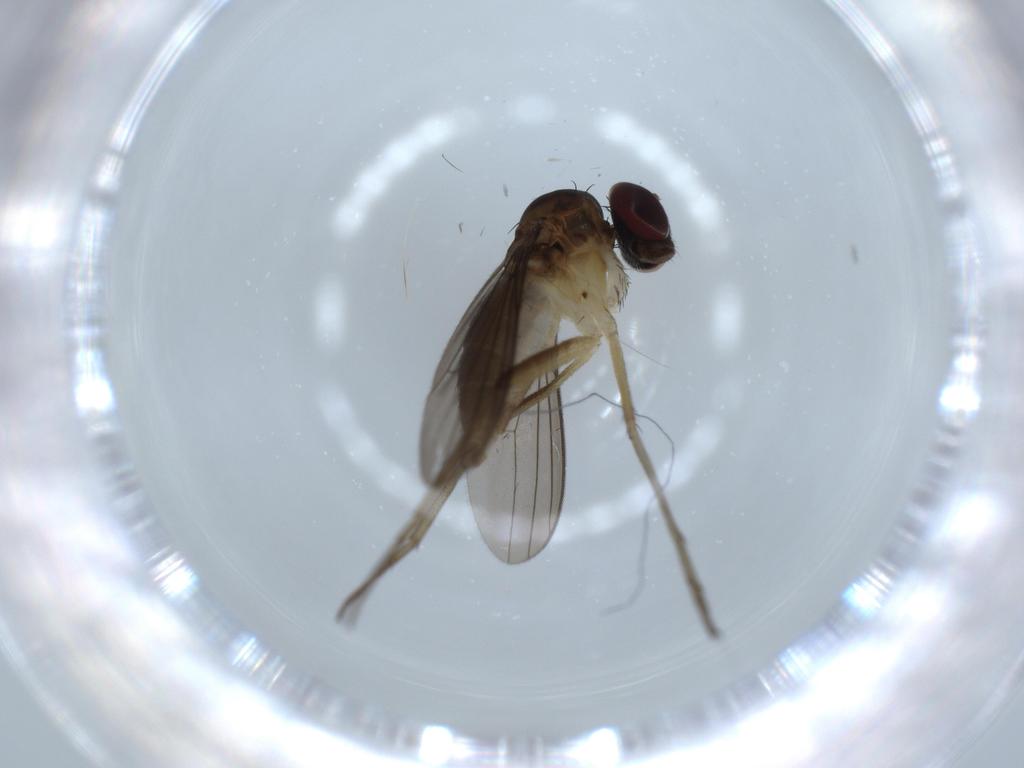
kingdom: Animalia
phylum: Arthropoda
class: Insecta
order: Diptera
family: Dolichopodidae
